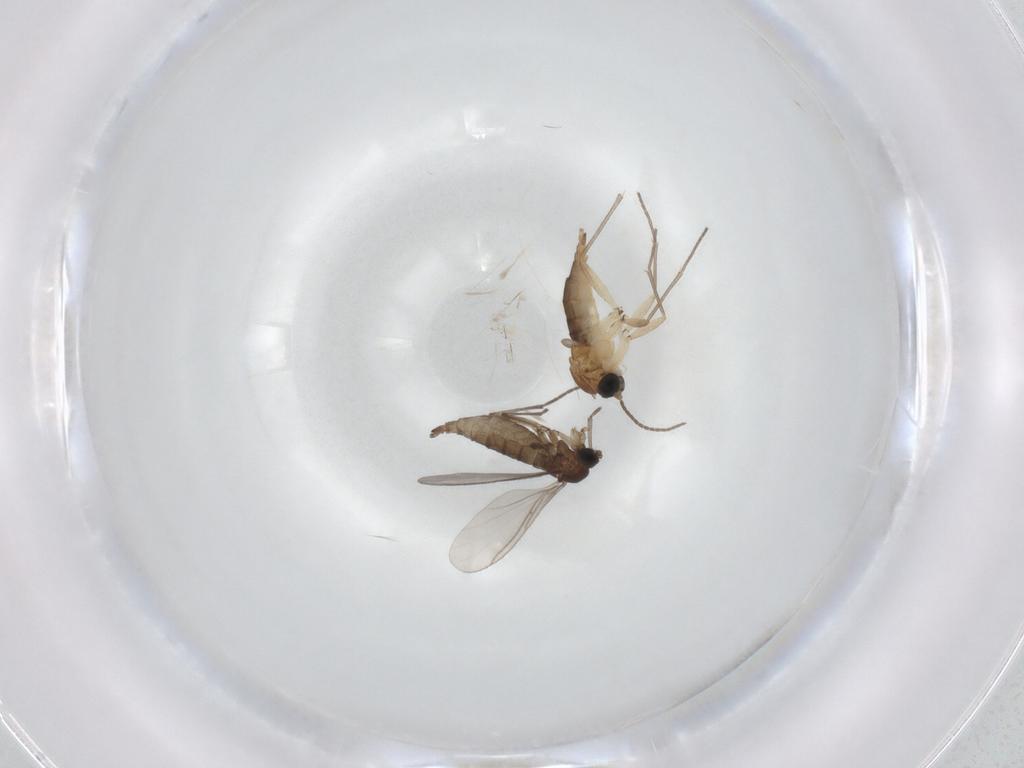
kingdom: Animalia
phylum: Arthropoda
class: Insecta
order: Diptera
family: Sciaridae
